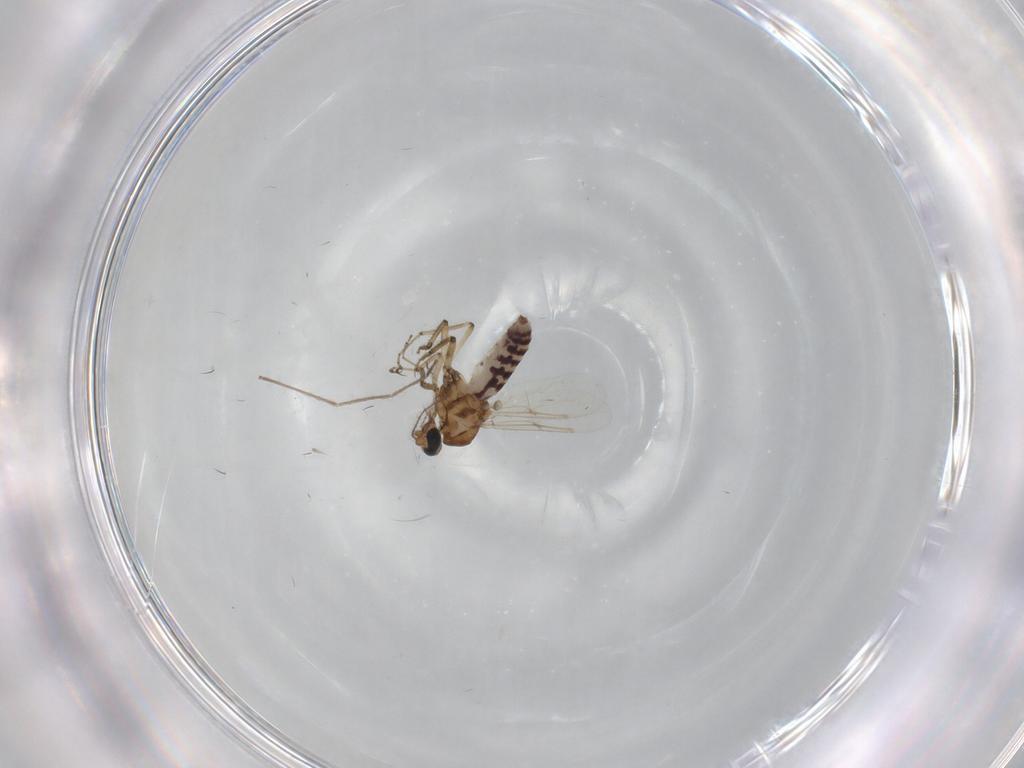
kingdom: Animalia
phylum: Arthropoda
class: Insecta
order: Diptera
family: Ceratopogonidae
